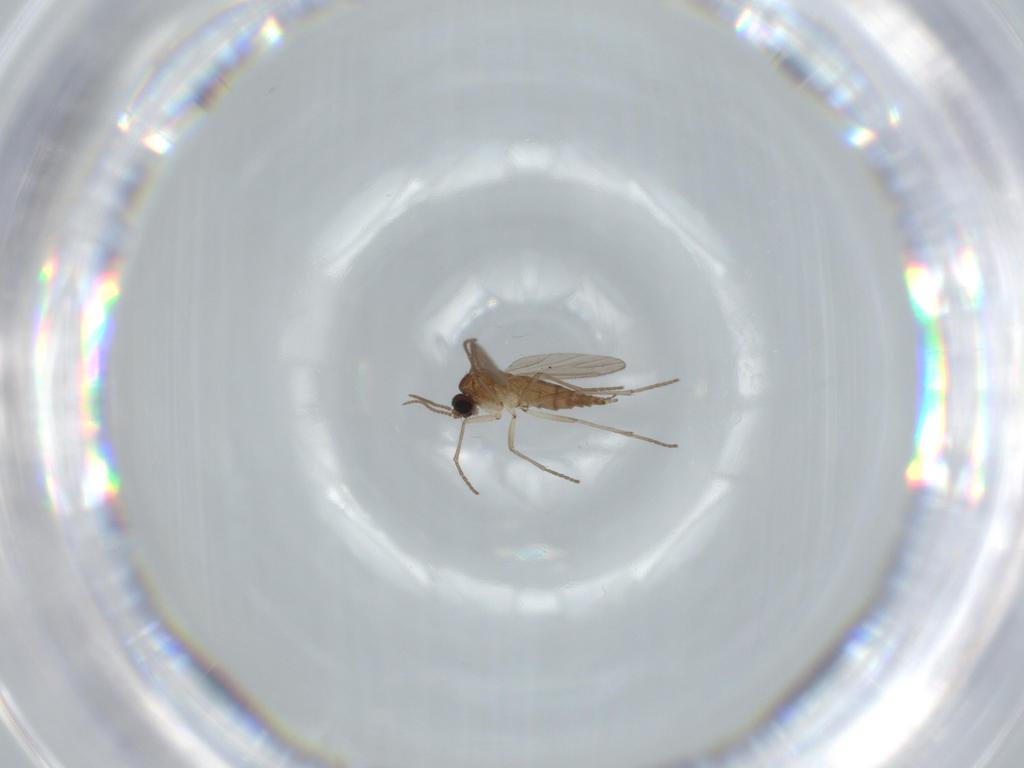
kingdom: Animalia
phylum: Arthropoda
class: Insecta
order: Diptera
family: Sciaridae
